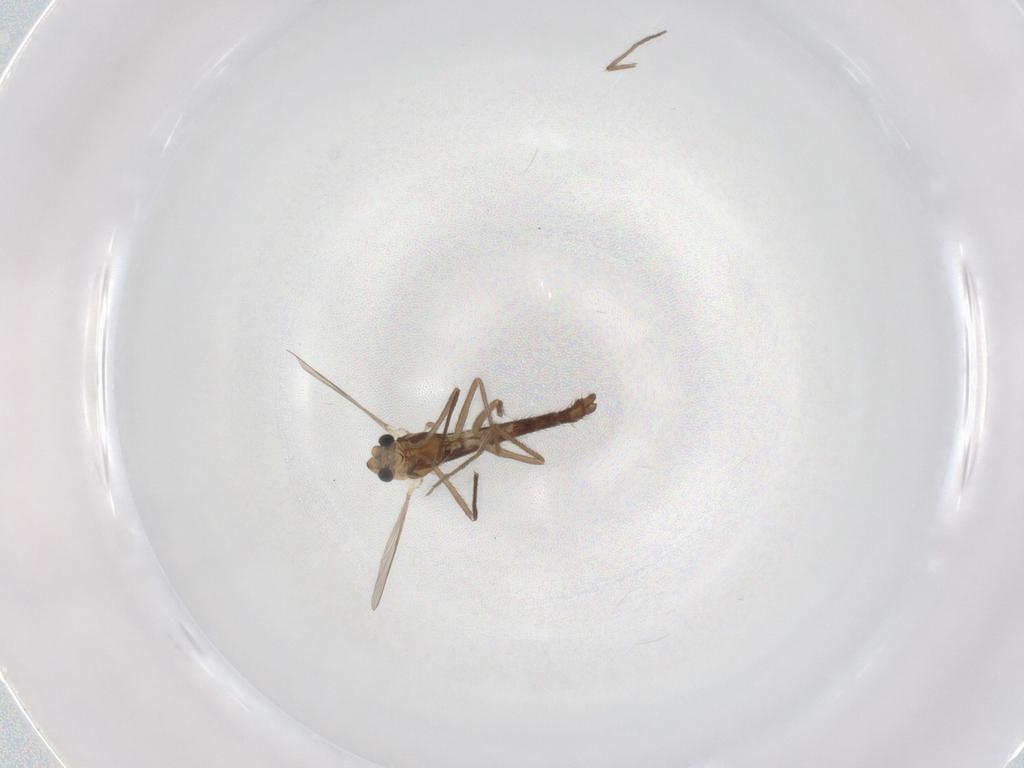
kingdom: Animalia
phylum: Arthropoda
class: Insecta
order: Diptera
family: Chironomidae
